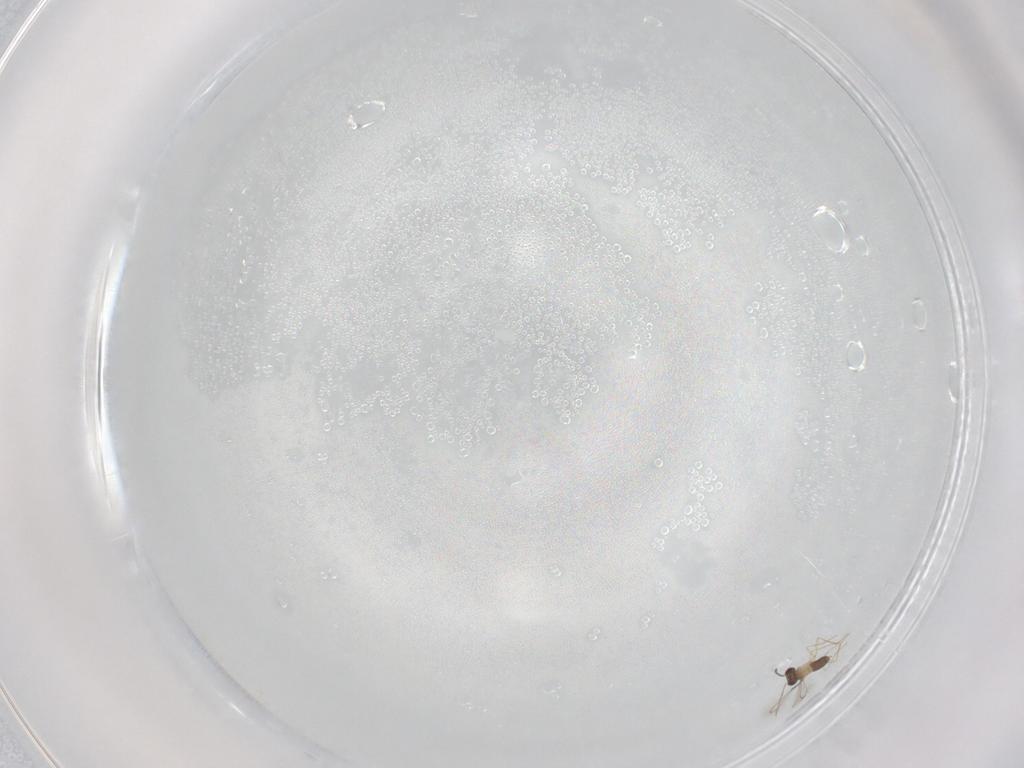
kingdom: Animalia
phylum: Arthropoda
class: Insecta
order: Hymenoptera
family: Mymaridae
